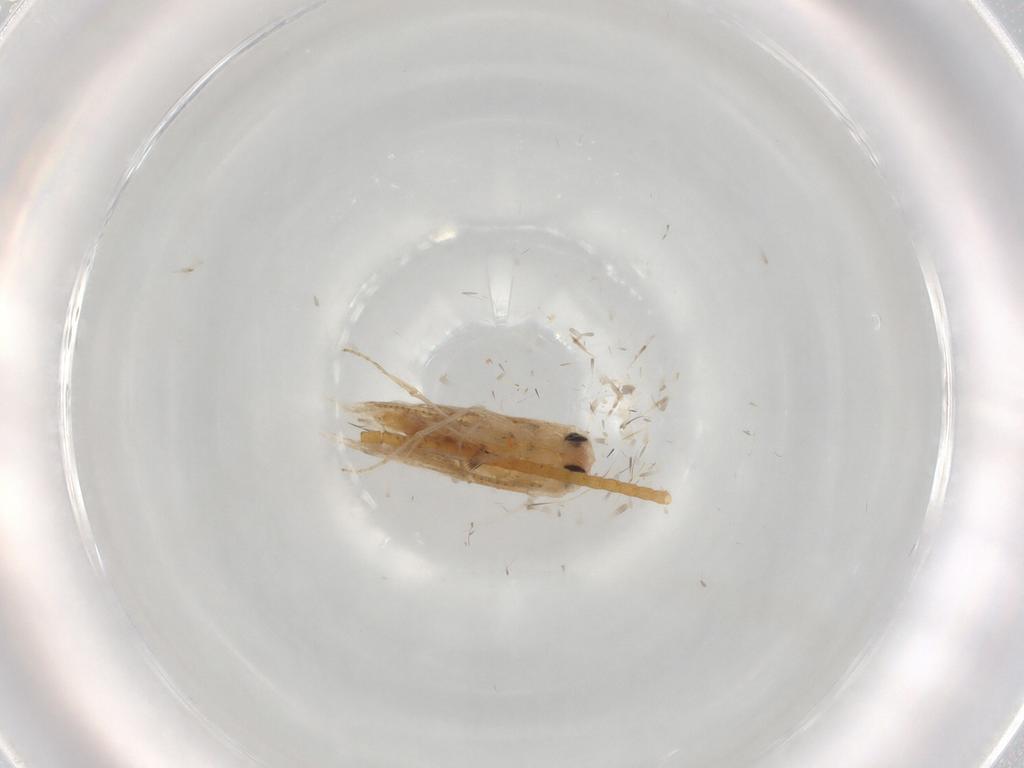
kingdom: Animalia
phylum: Arthropoda
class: Insecta
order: Lepidoptera
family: Bucculatricidae
